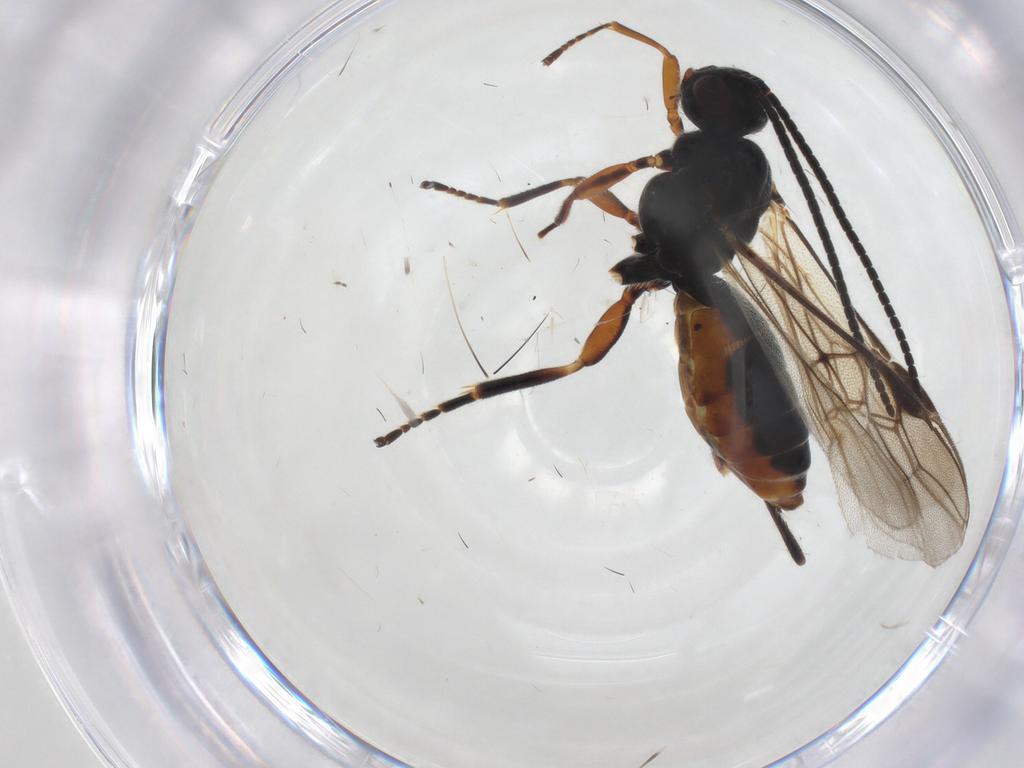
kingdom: Animalia
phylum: Arthropoda
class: Insecta
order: Hymenoptera
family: Braconidae
